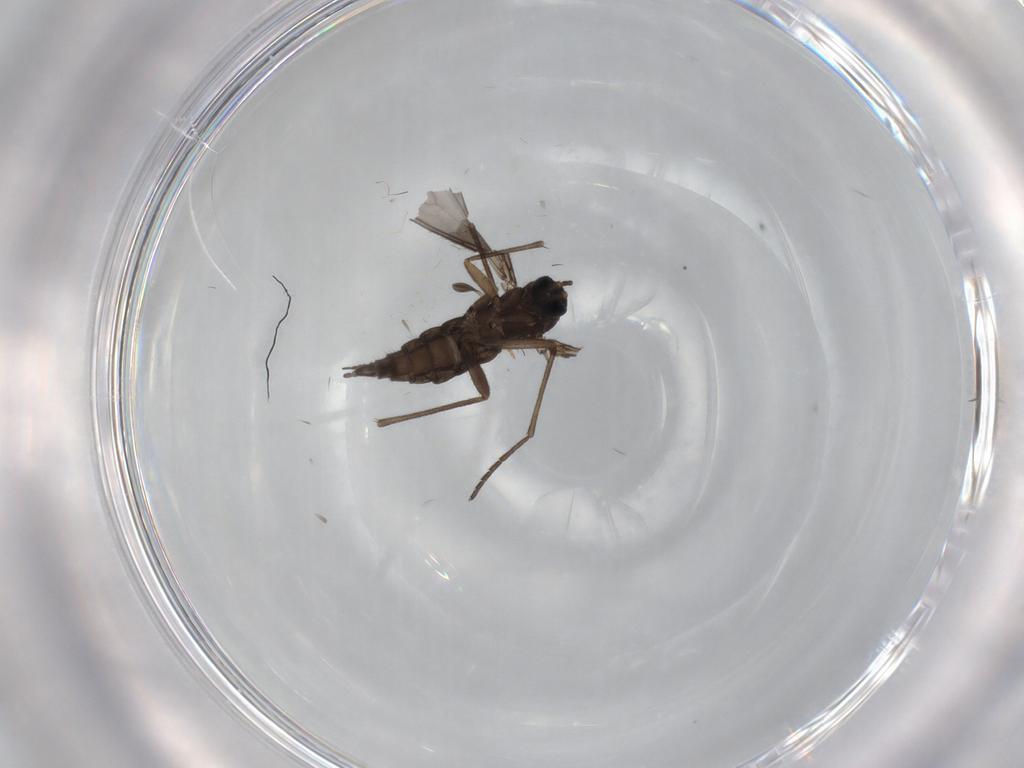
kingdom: Animalia
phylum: Arthropoda
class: Insecta
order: Diptera
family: Sciaridae
